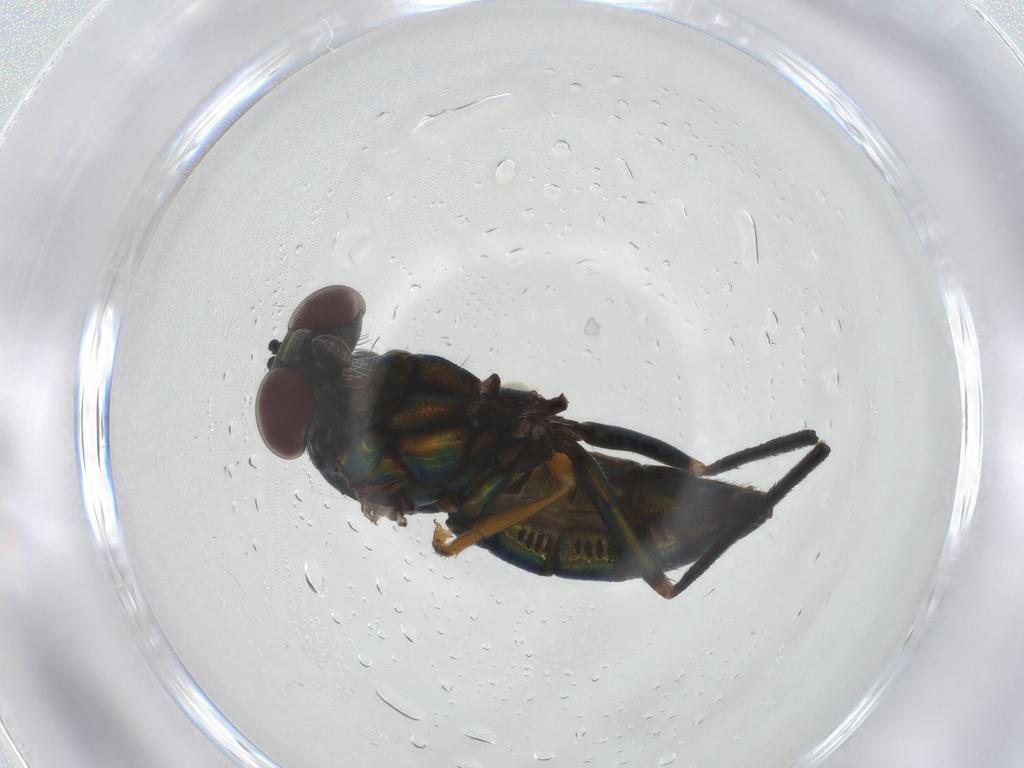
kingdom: Animalia
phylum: Arthropoda
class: Insecta
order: Diptera
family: Dolichopodidae
